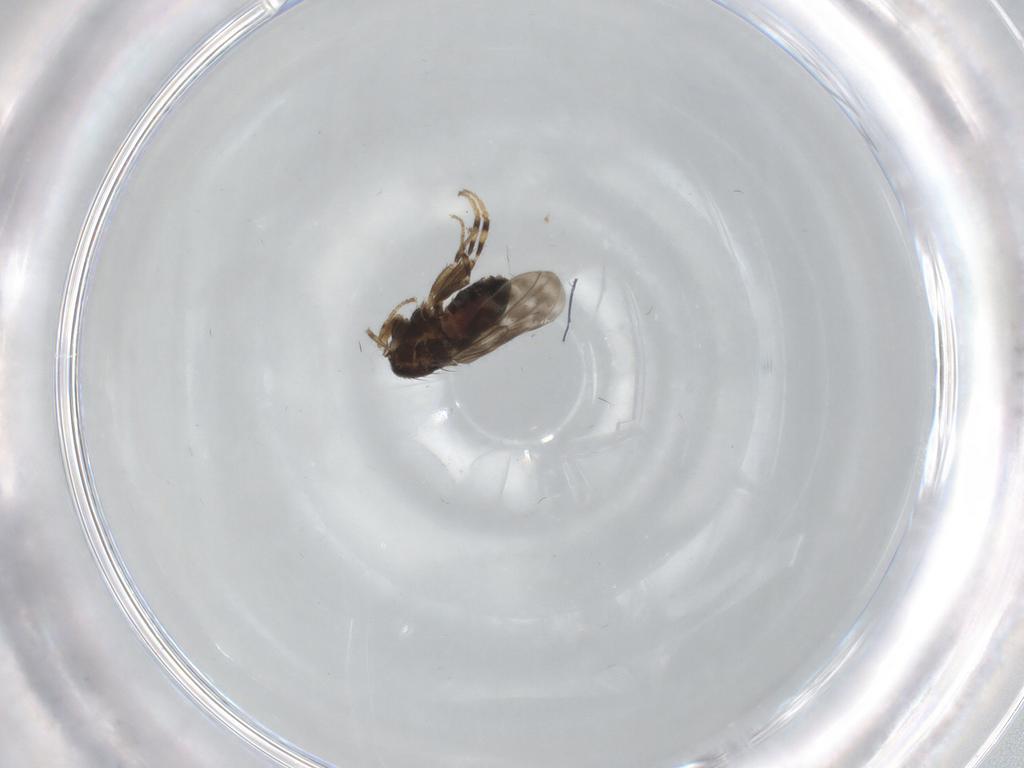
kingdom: Animalia
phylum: Arthropoda
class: Insecta
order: Diptera
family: Sphaeroceridae
